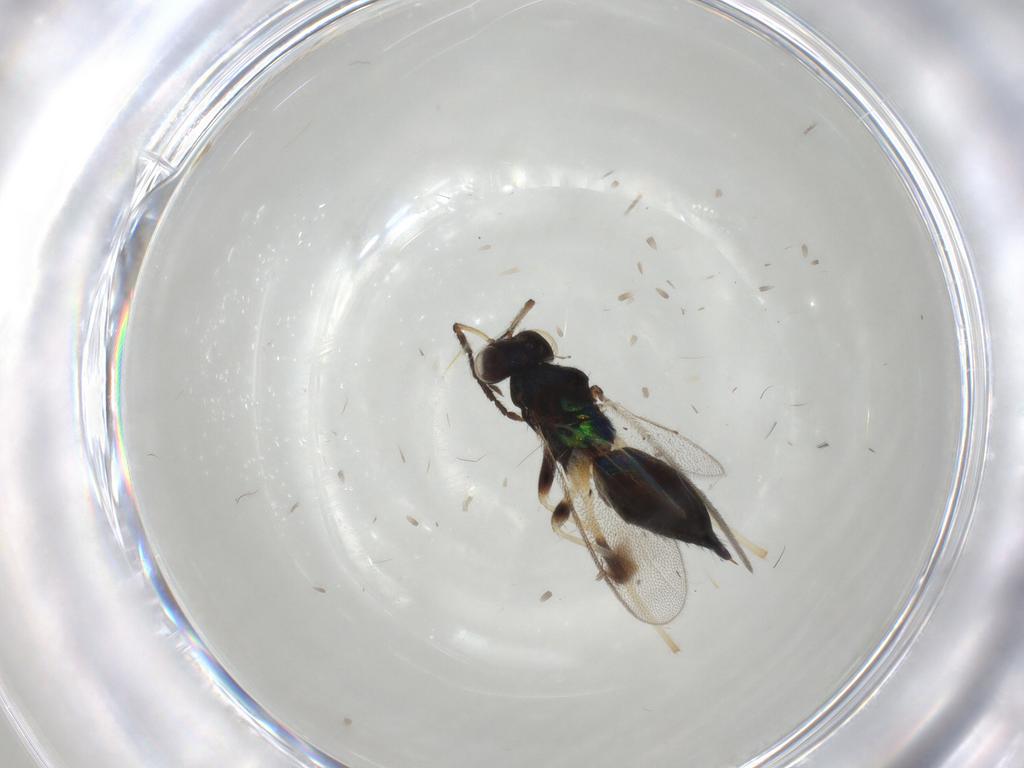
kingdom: Animalia
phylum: Arthropoda
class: Insecta
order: Hymenoptera
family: Eulophidae
